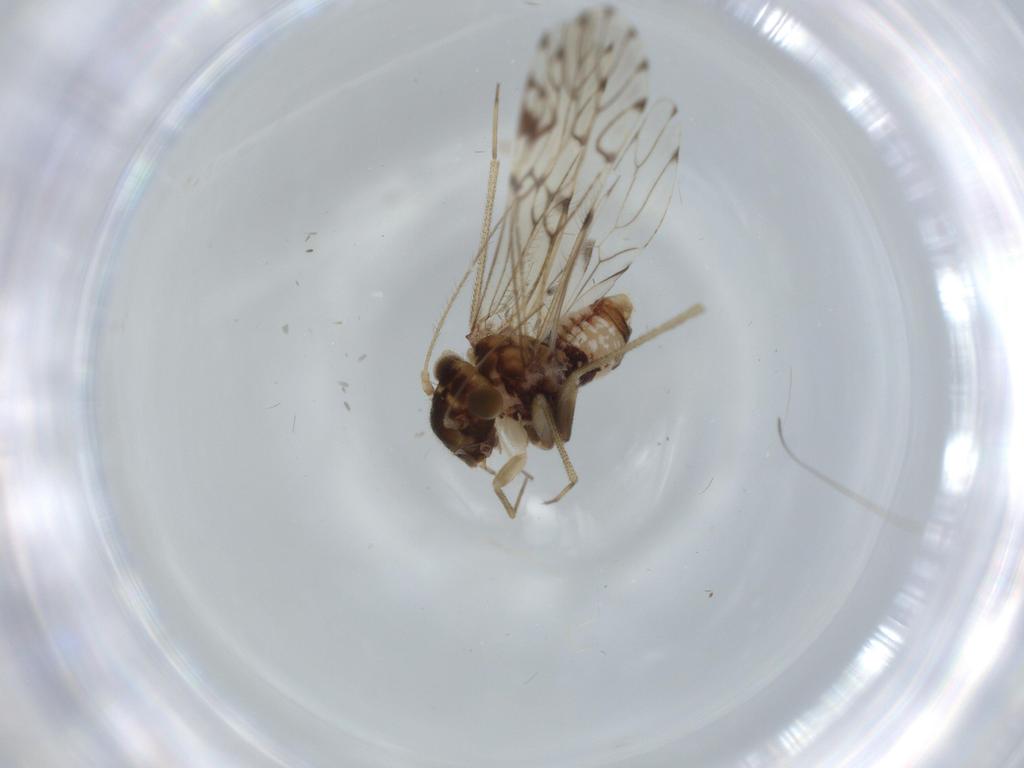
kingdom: Animalia
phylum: Arthropoda
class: Insecta
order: Diptera
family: Sciaridae
